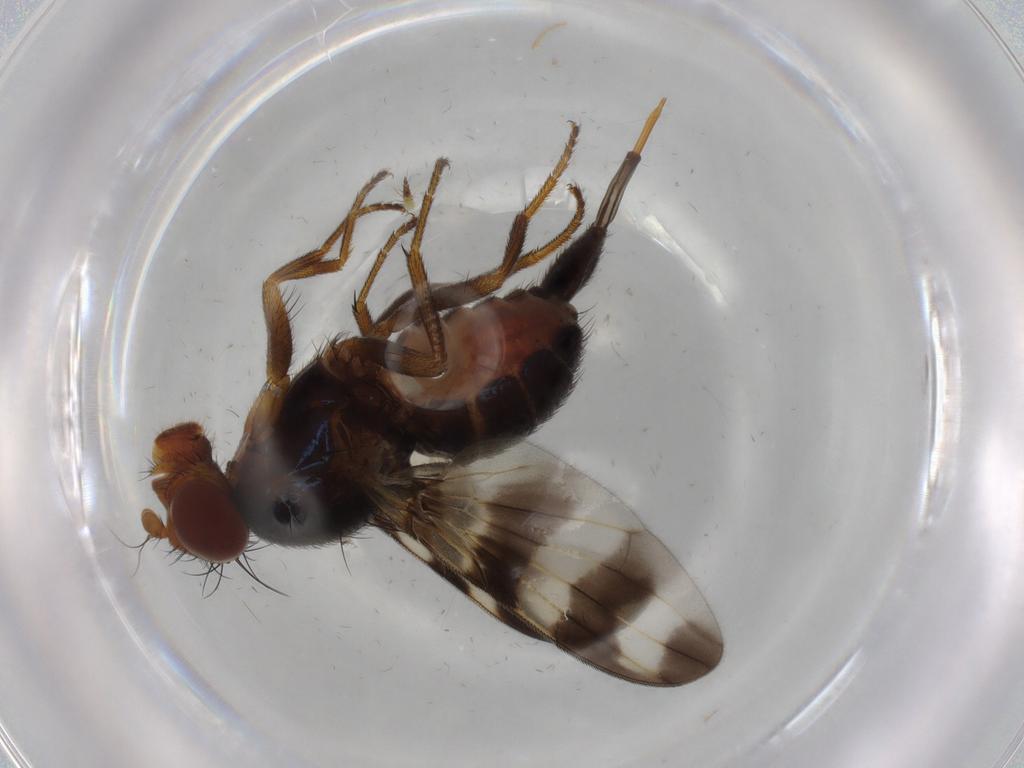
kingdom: Animalia
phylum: Arthropoda
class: Insecta
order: Diptera
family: Ulidiidae
